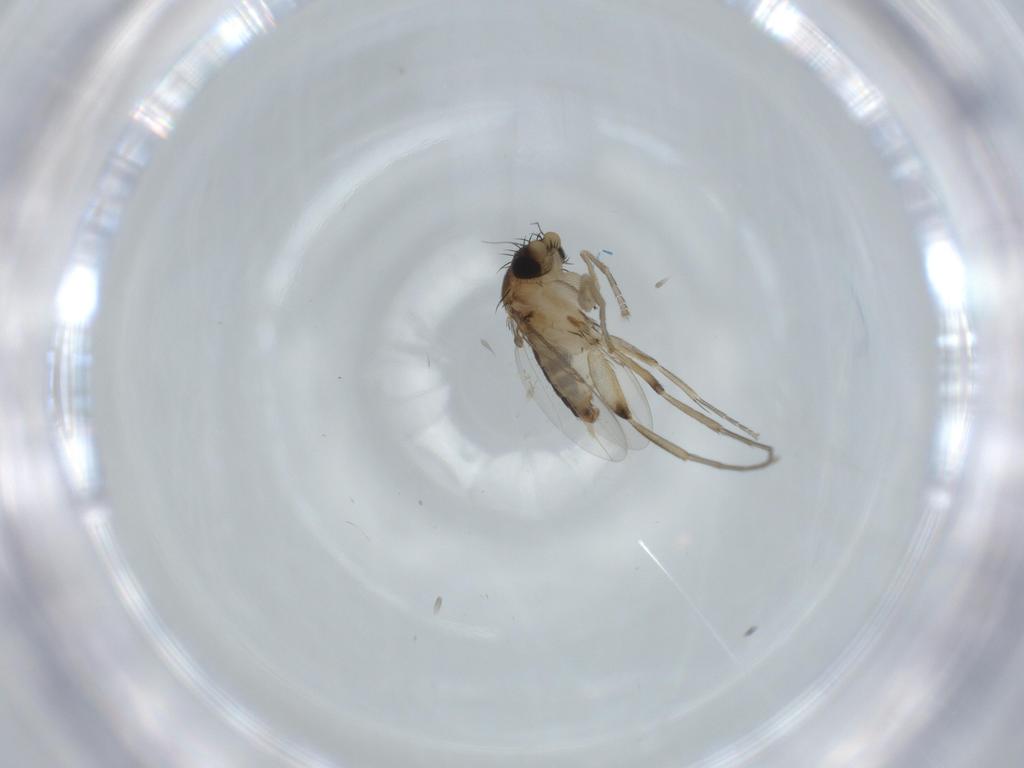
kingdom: Animalia
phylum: Arthropoda
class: Insecta
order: Diptera
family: Phoridae
